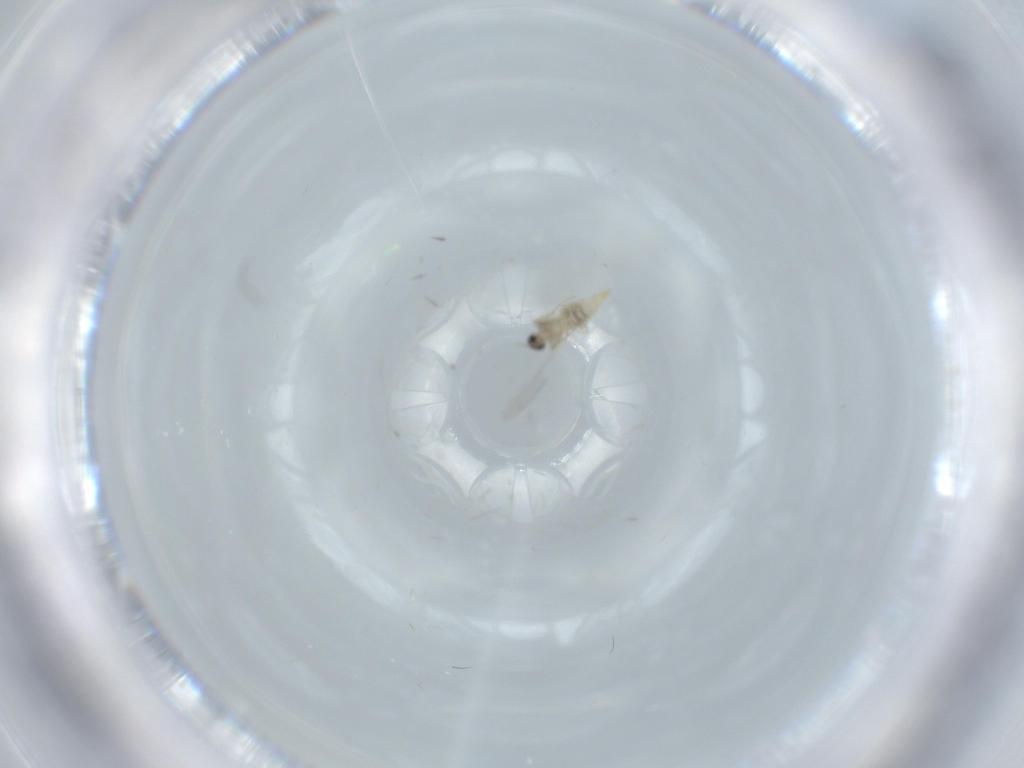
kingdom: Animalia
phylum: Arthropoda
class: Insecta
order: Diptera
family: Cecidomyiidae
